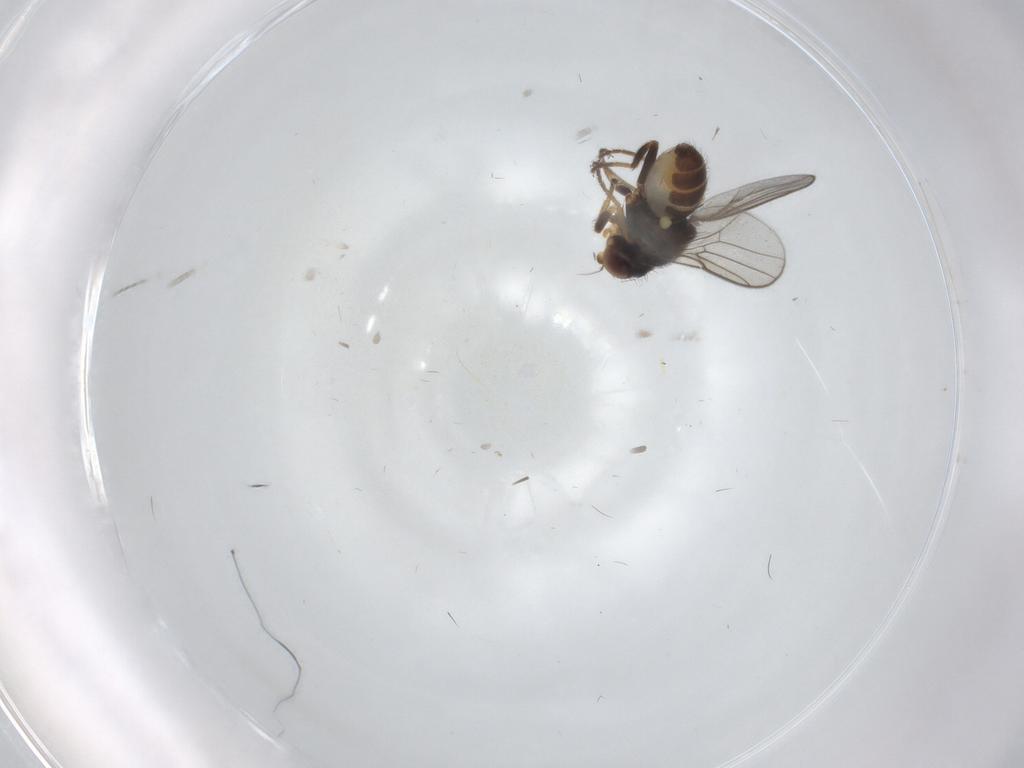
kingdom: Animalia
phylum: Arthropoda
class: Insecta
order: Diptera
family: Chloropidae
